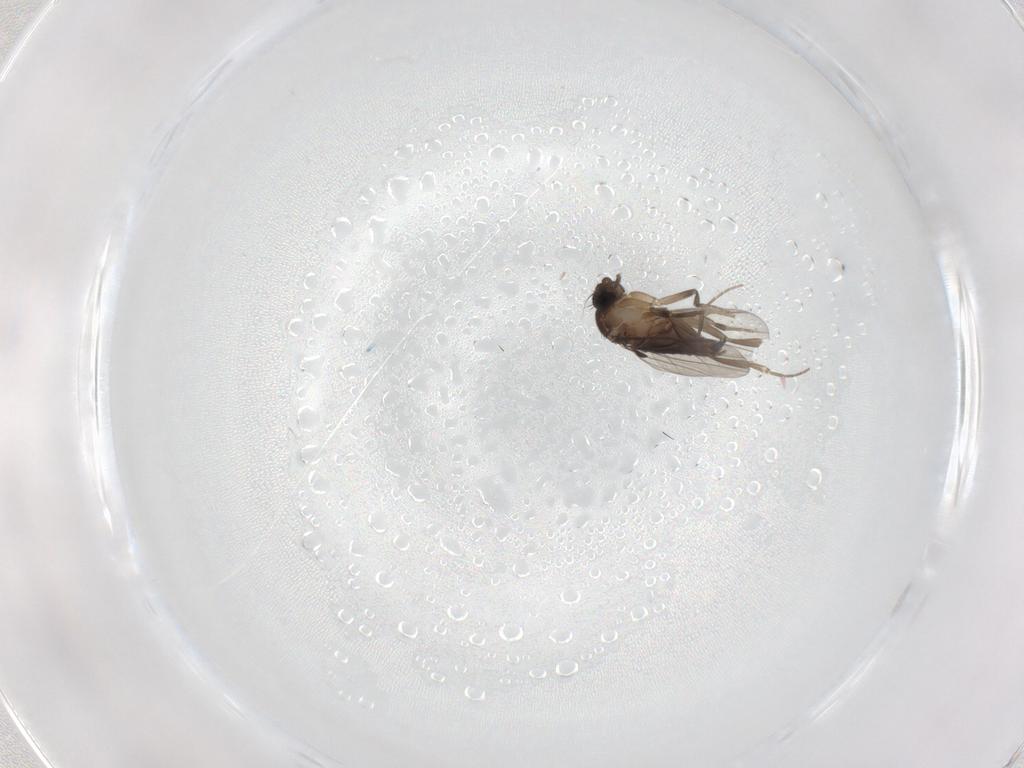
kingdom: Animalia
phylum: Arthropoda
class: Insecta
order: Diptera
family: Phoridae
